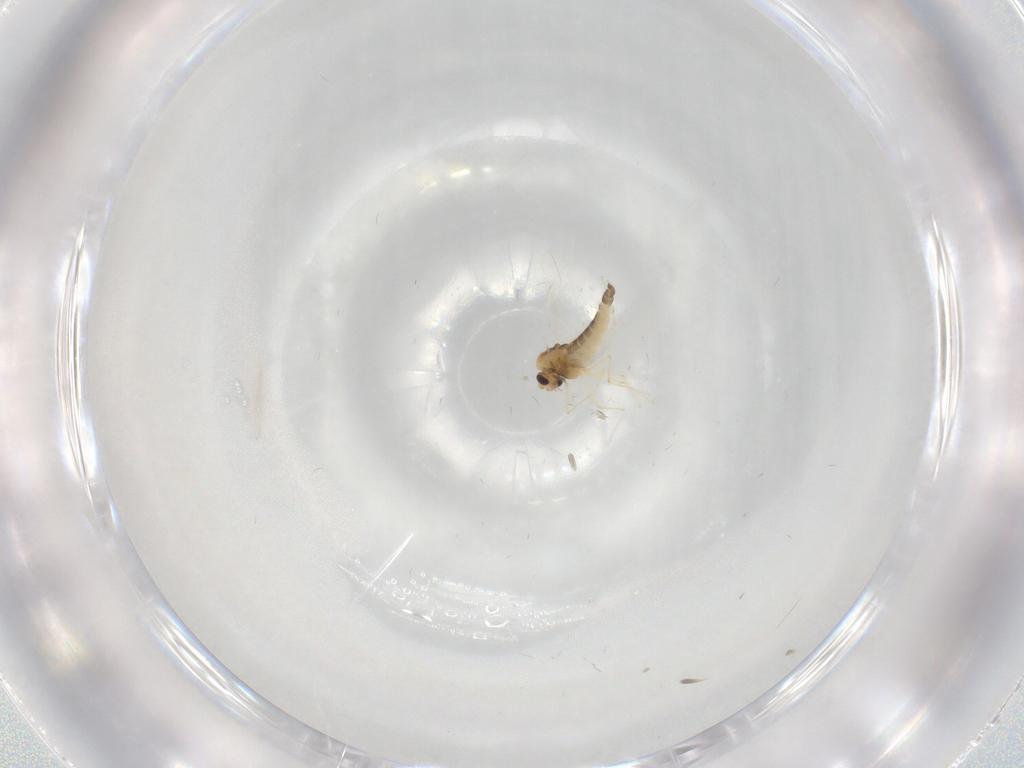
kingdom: Animalia
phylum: Arthropoda
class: Insecta
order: Diptera
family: Chironomidae
